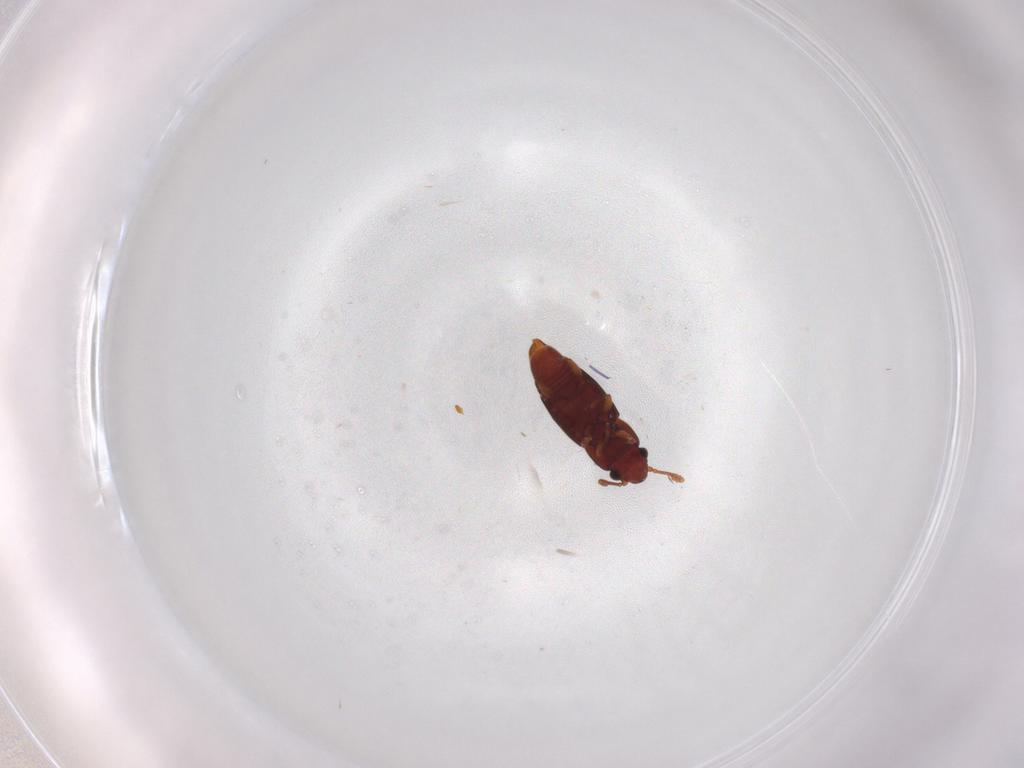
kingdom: Animalia
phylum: Arthropoda
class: Insecta
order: Coleoptera
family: Smicripidae
